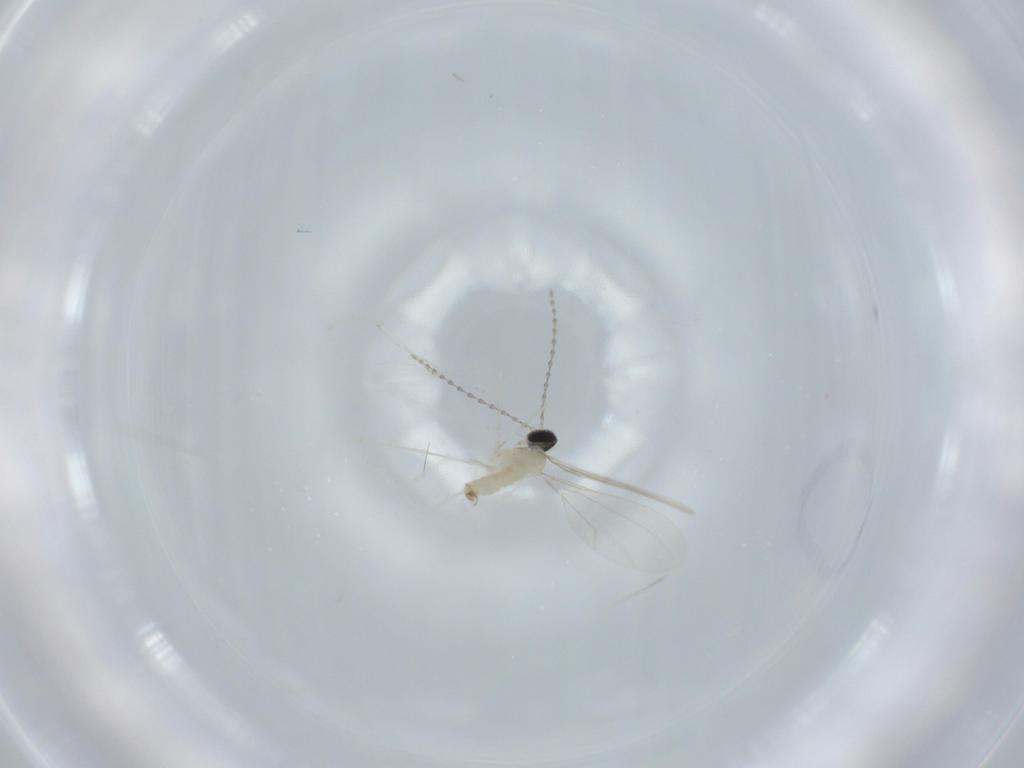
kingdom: Animalia
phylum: Arthropoda
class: Insecta
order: Diptera
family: Cecidomyiidae
